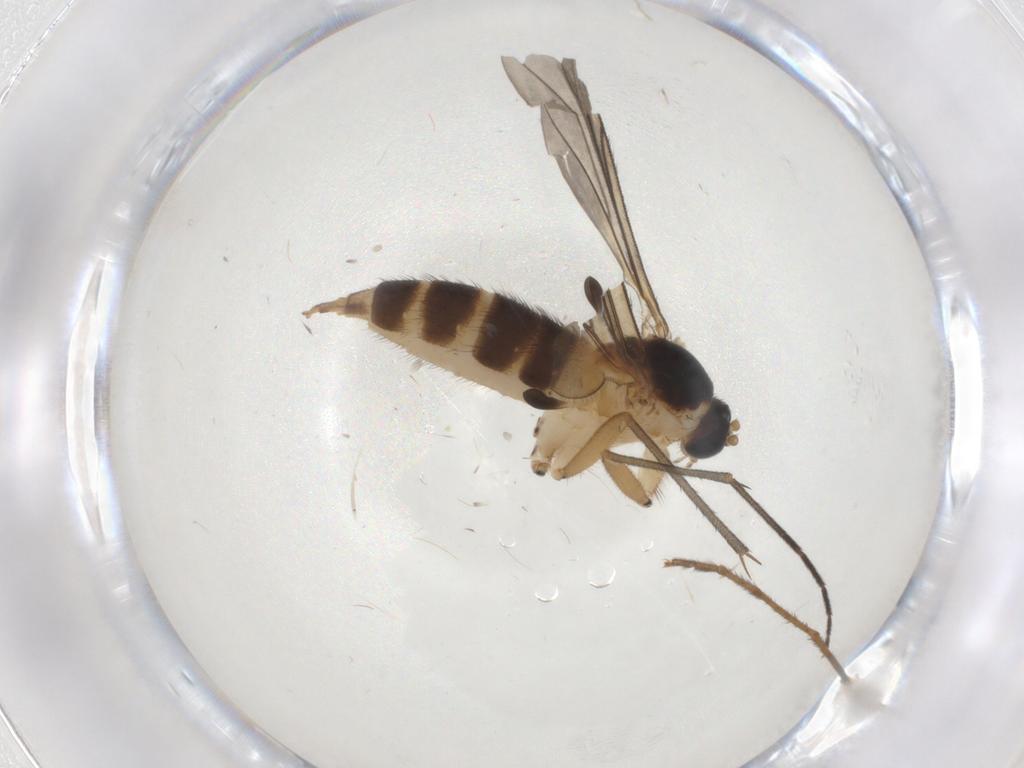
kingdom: Animalia
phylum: Arthropoda
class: Insecta
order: Diptera
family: Sciaridae
